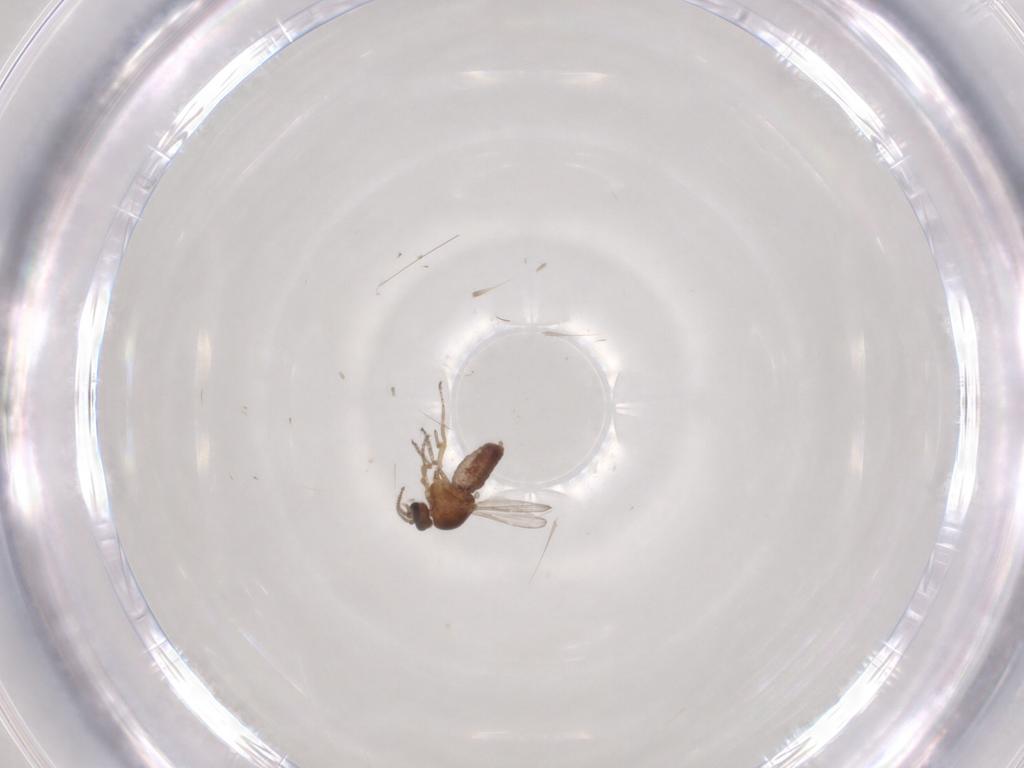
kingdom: Animalia
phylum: Arthropoda
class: Insecta
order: Diptera
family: Ceratopogonidae
